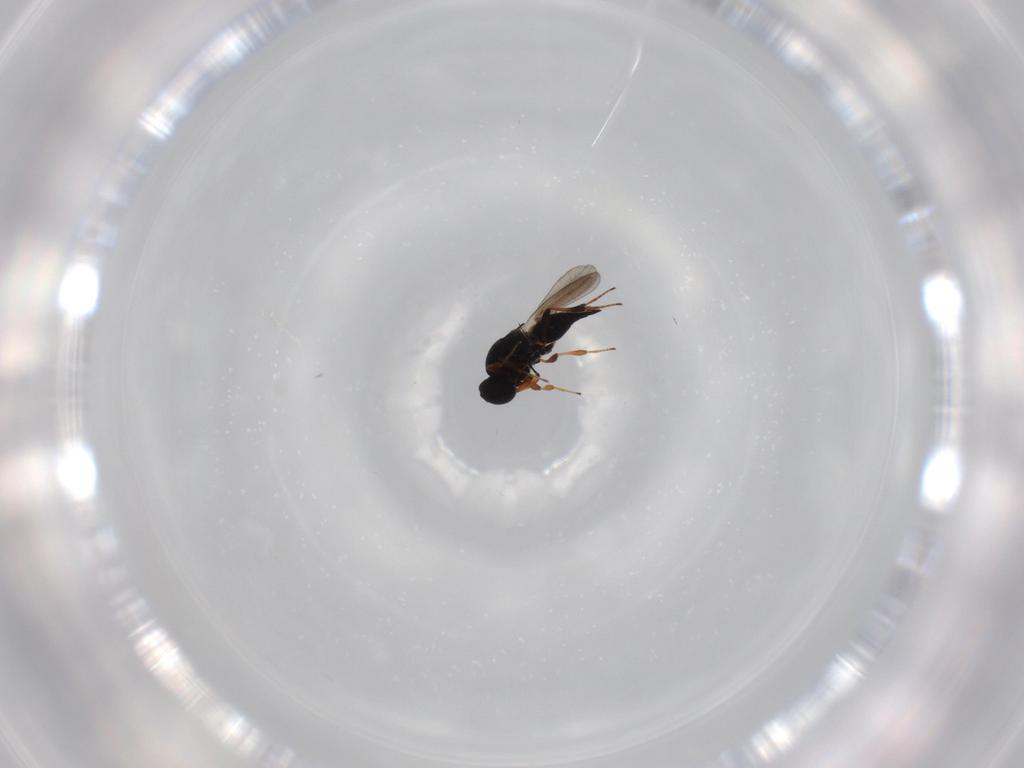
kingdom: Animalia
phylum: Arthropoda
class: Insecta
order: Hymenoptera
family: Platygastridae
